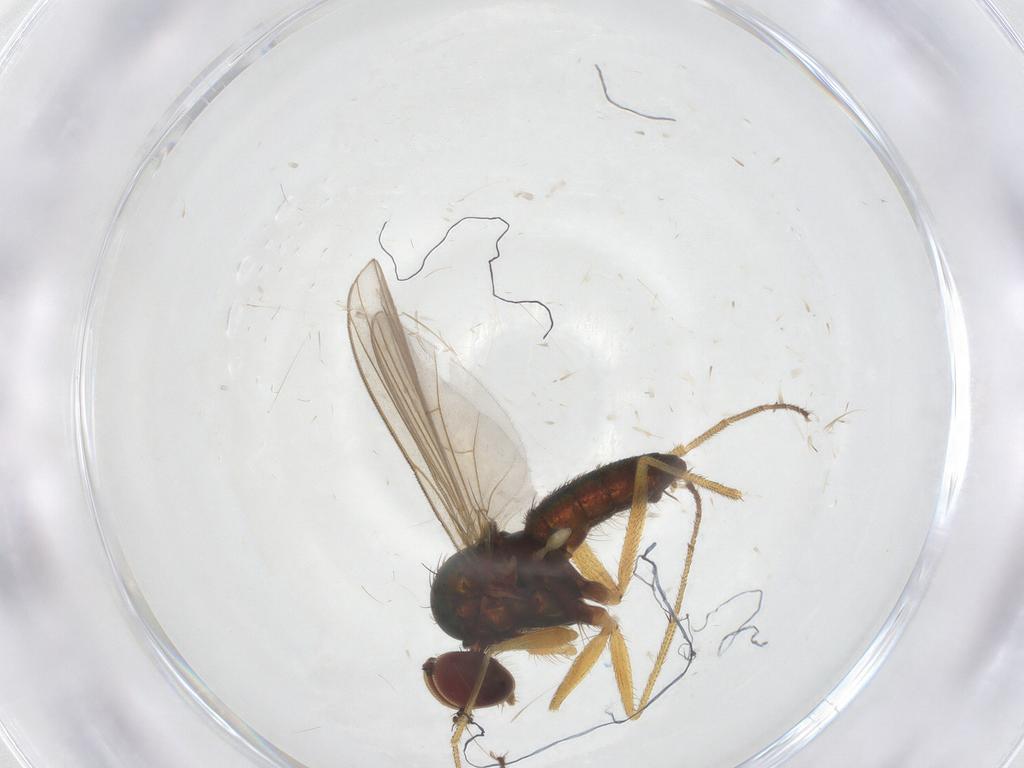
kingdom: Animalia
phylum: Arthropoda
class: Insecta
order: Diptera
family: Dolichopodidae
